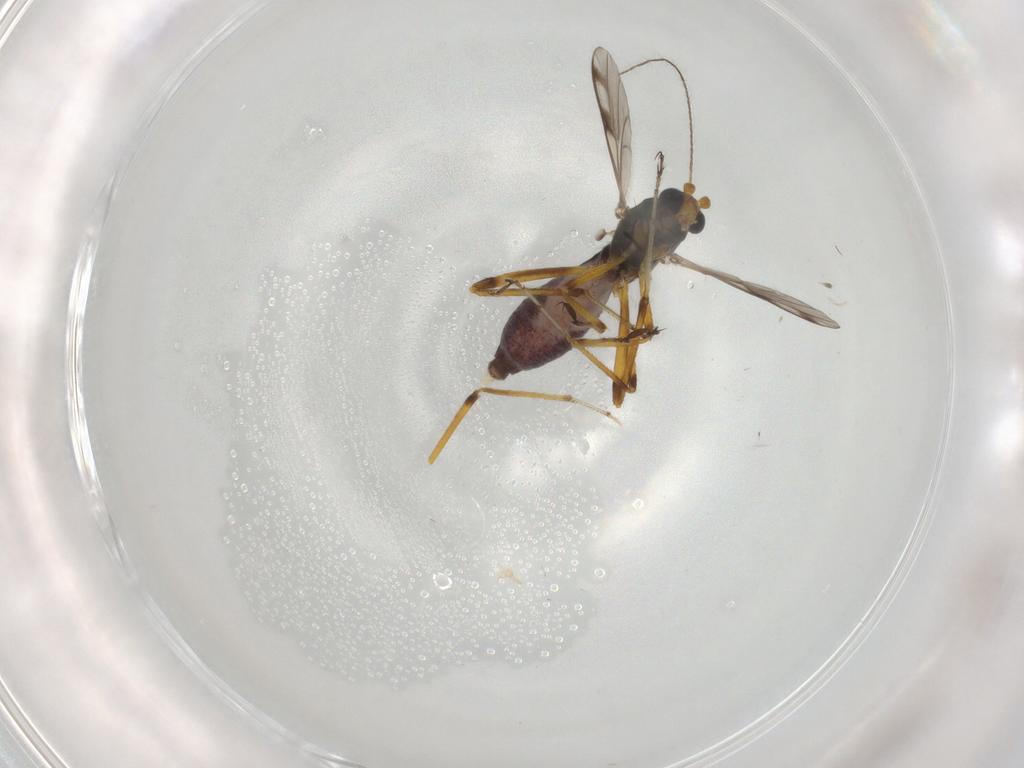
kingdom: Animalia
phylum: Arthropoda
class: Insecta
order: Diptera
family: Ceratopogonidae
